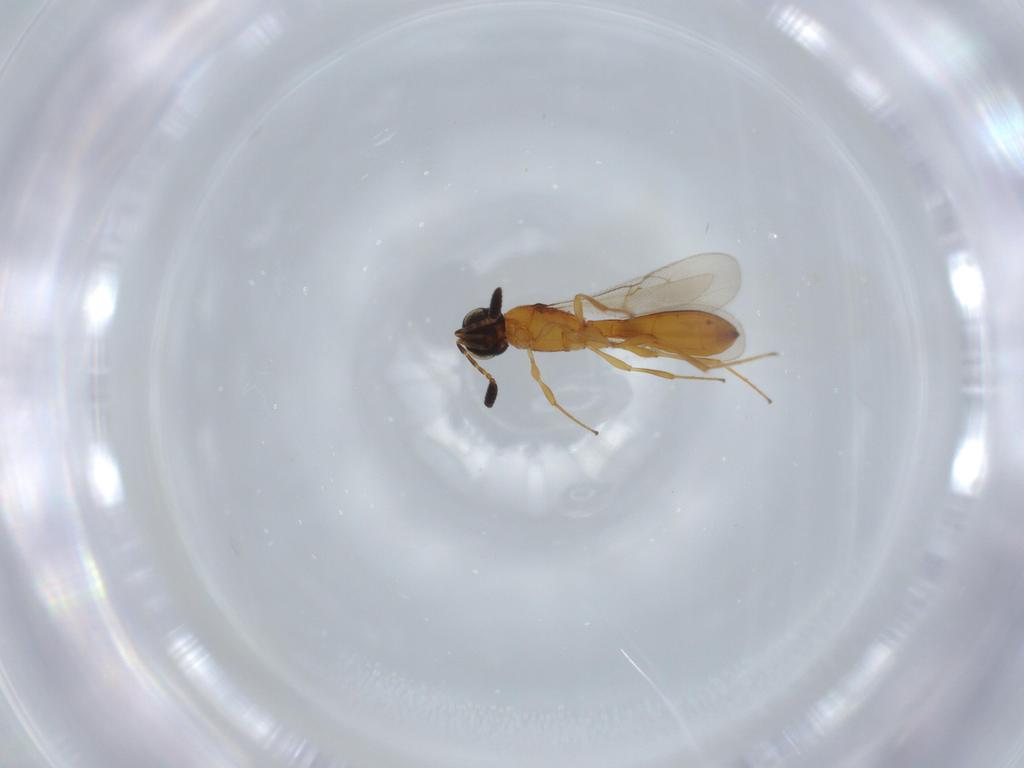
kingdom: Animalia
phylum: Arthropoda
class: Insecta
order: Hymenoptera
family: Scelionidae
